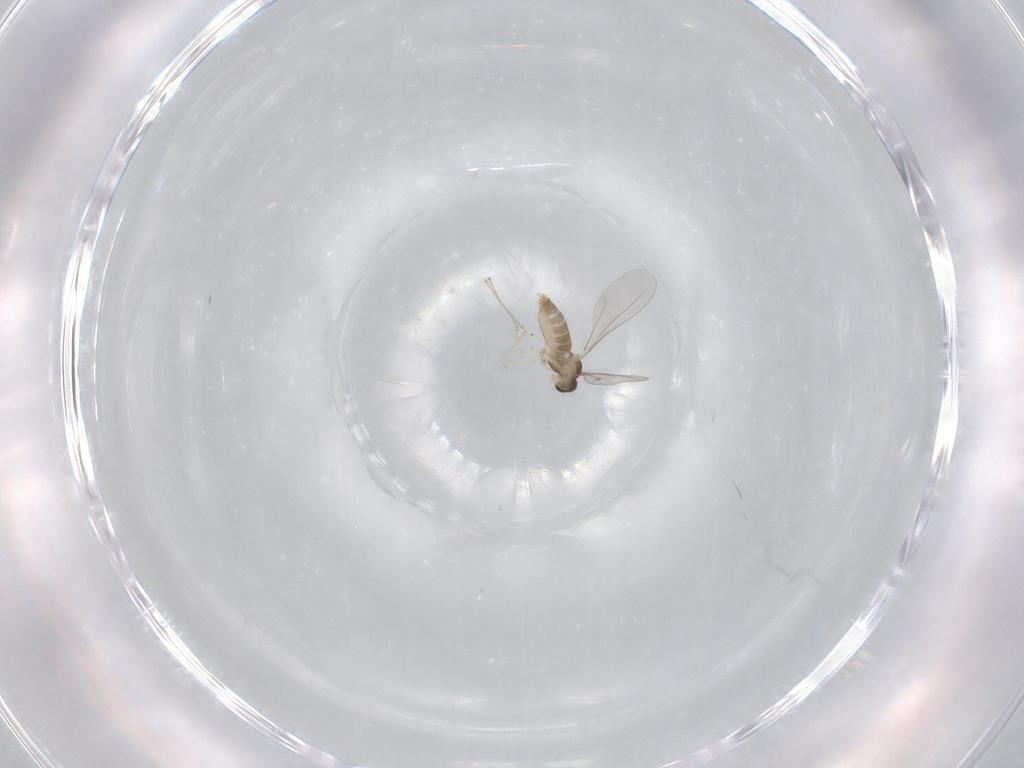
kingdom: Animalia
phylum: Arthropoda
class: Insecta
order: Diptera
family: Cecidomyiidae
